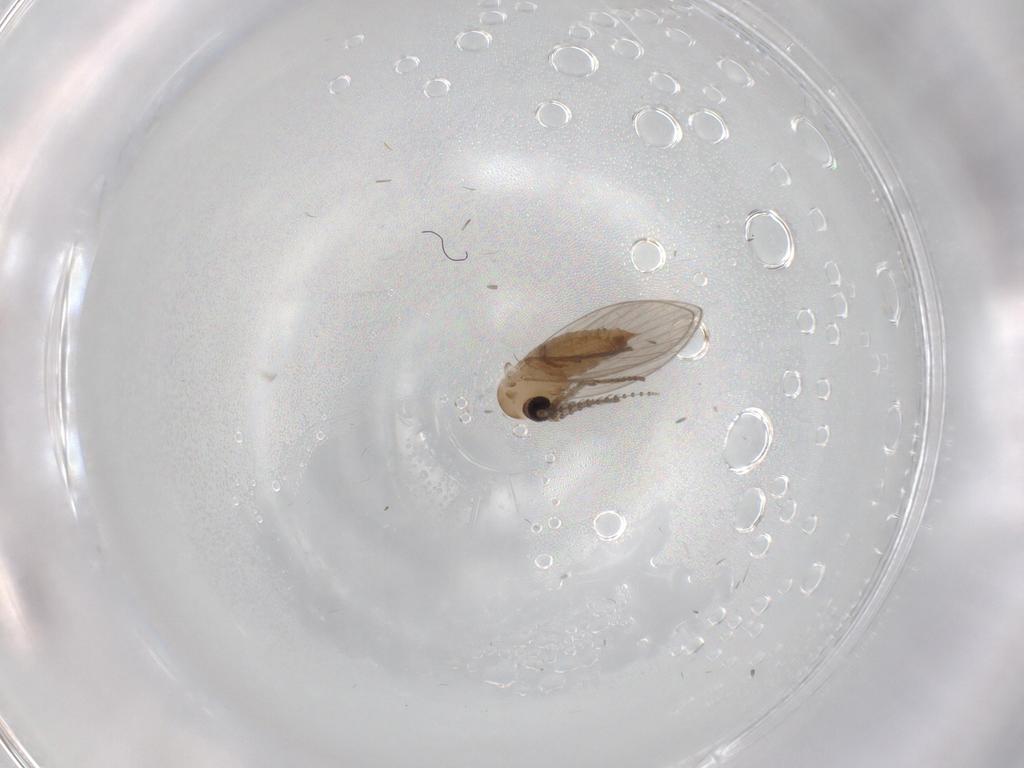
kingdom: Animalia
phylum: Arthropoda
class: Insecta
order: Diptera
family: Psychodidae
